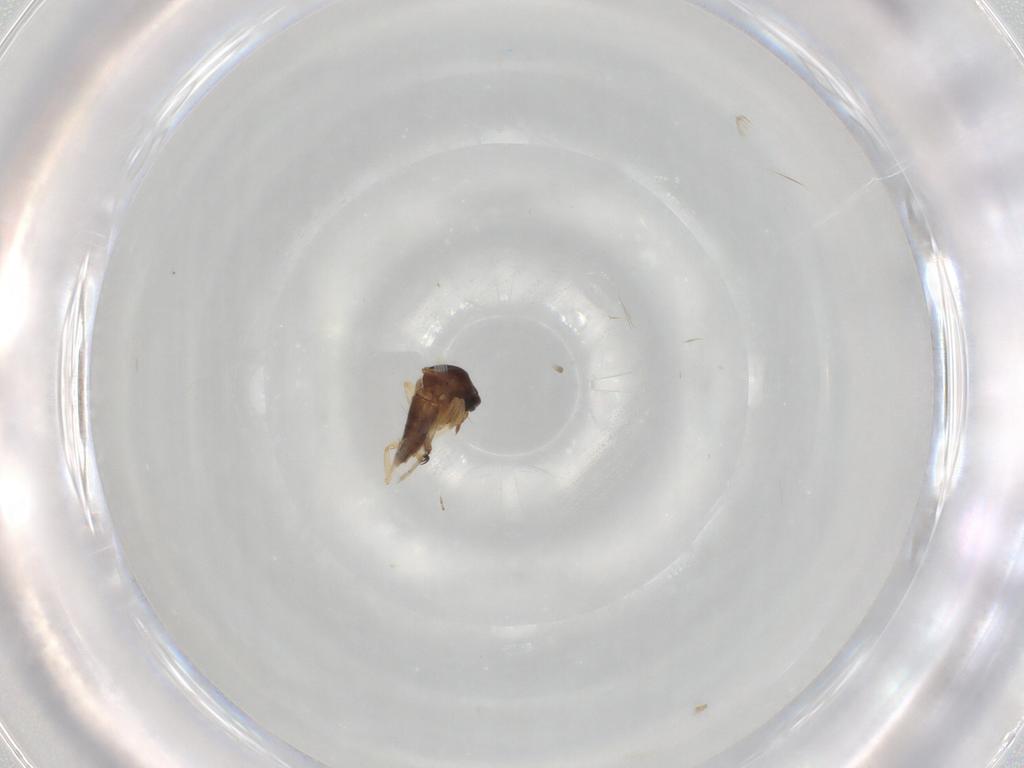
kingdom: Animalia
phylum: Arthropoda
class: Insecta
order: Diptera
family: Ceratopogonidae
